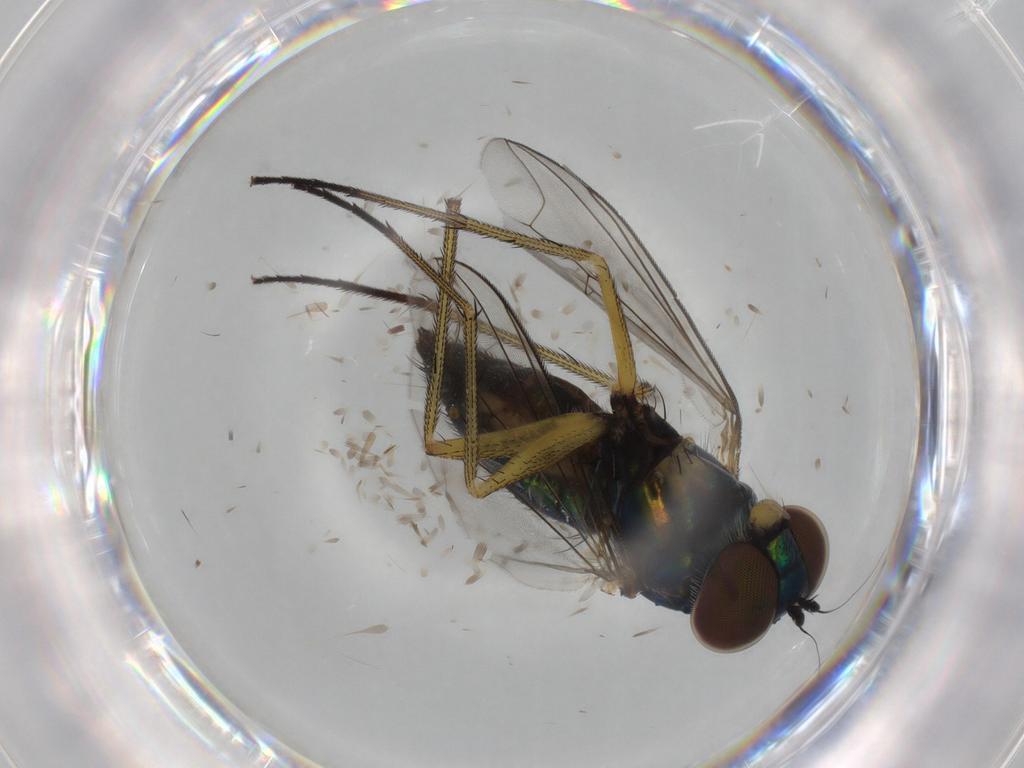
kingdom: Animalia
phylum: Arthropoda
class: Insecta
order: Diptera
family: Dolichopodidae
